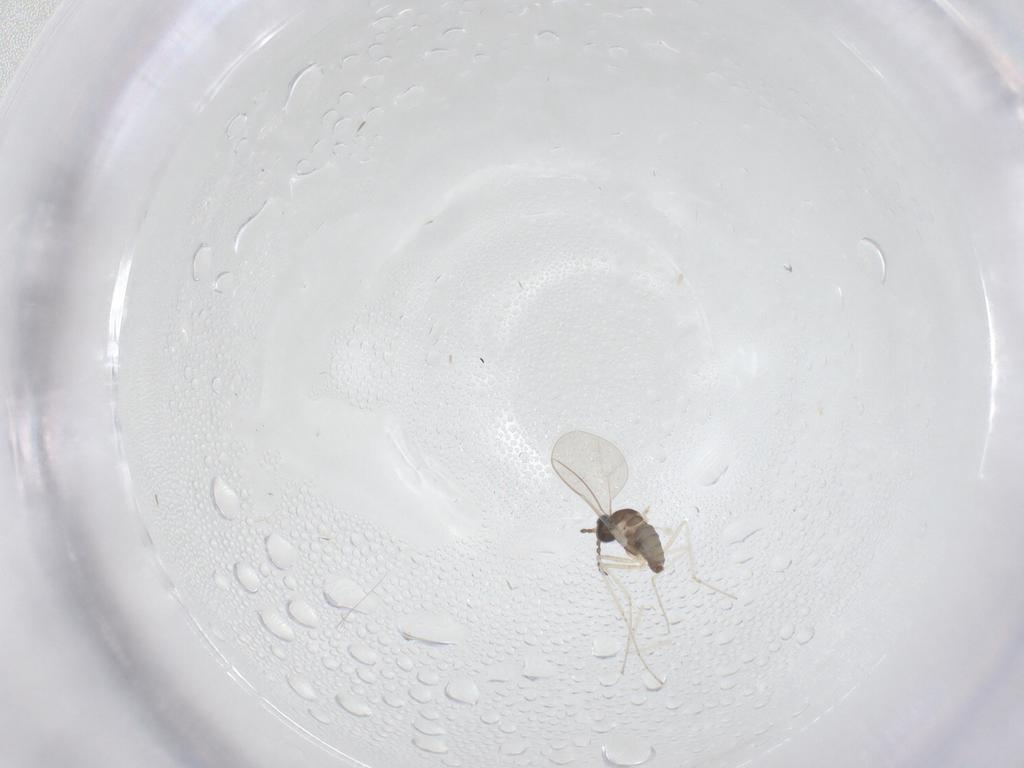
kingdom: Animalia
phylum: Arthropoda
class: Insecta
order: Diptera
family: Cecidomyiidae
